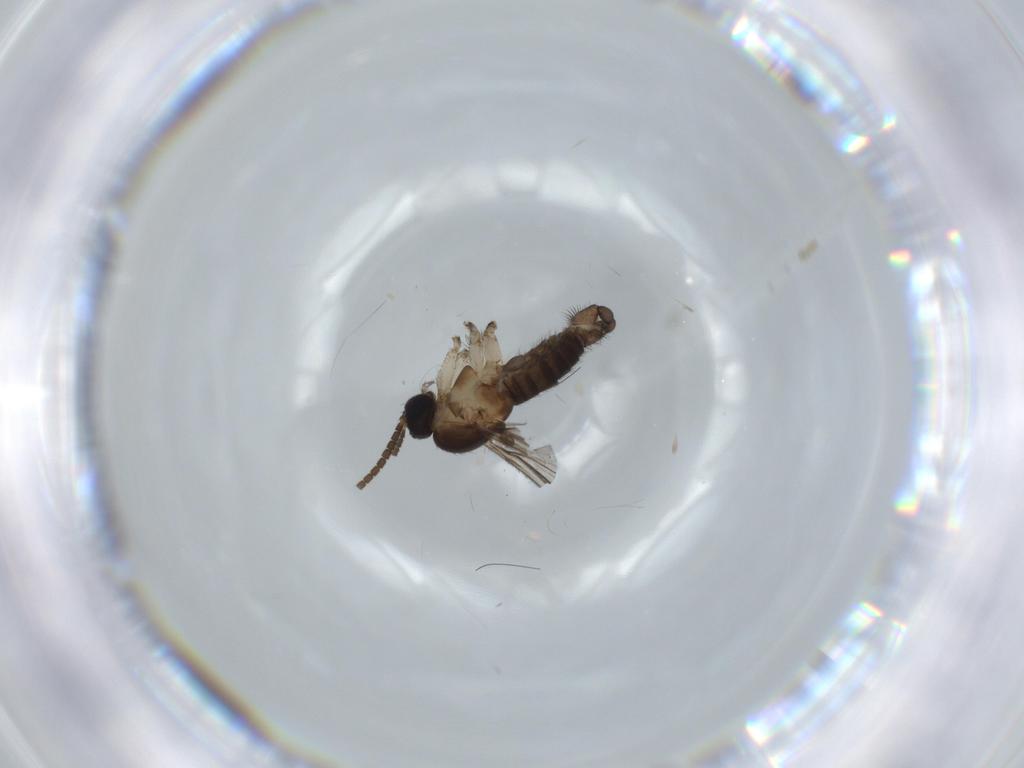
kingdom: Animalia
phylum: Arthropoda
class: Insecta
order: Diptera
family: Sciaridae
